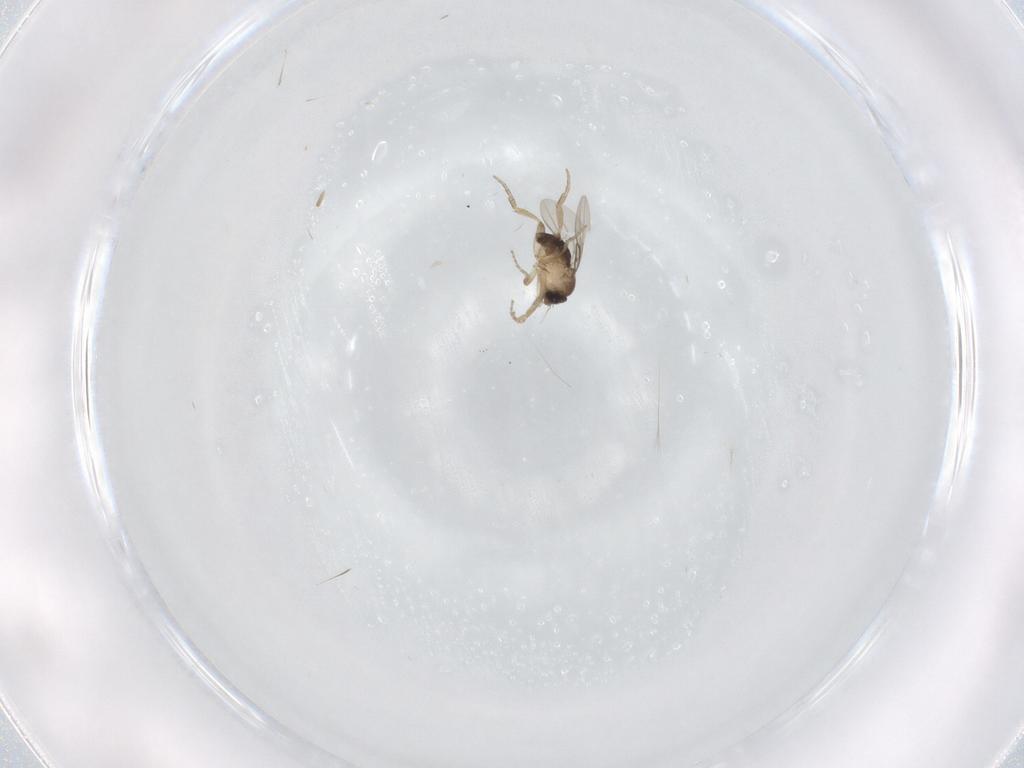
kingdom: Animalia
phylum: Arthropoda
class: Insecta
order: Diptera
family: Phoridae
